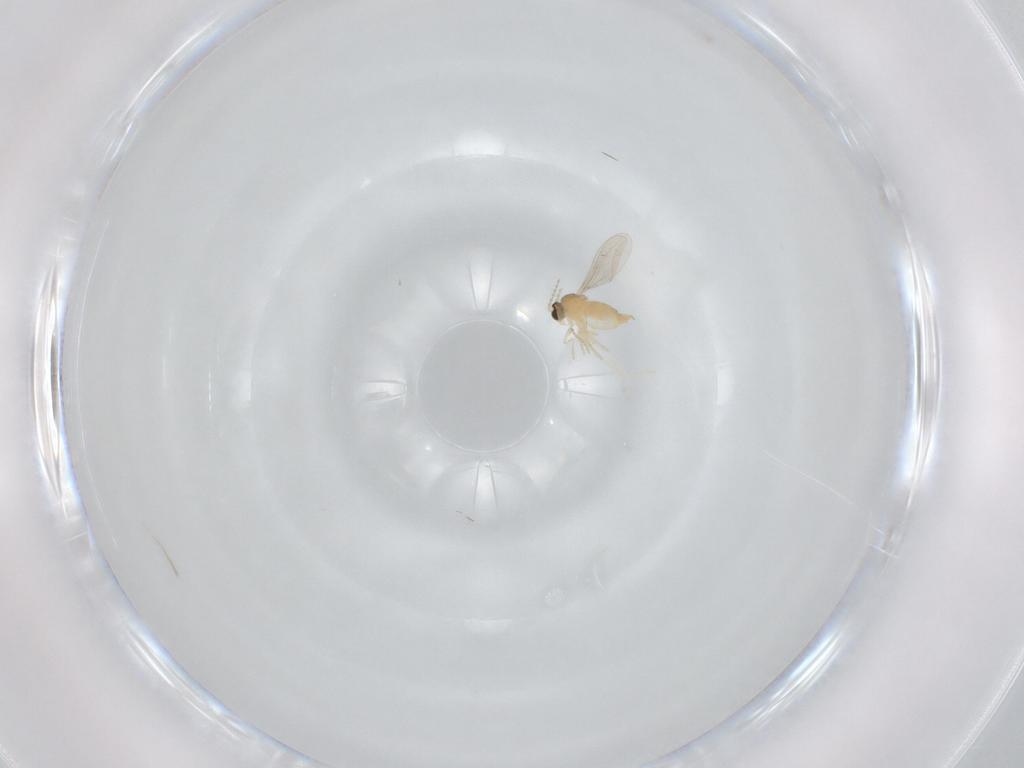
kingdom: Animalia
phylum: Arthropoda
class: Insecta
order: Diptera
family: Cecidomyiidae
